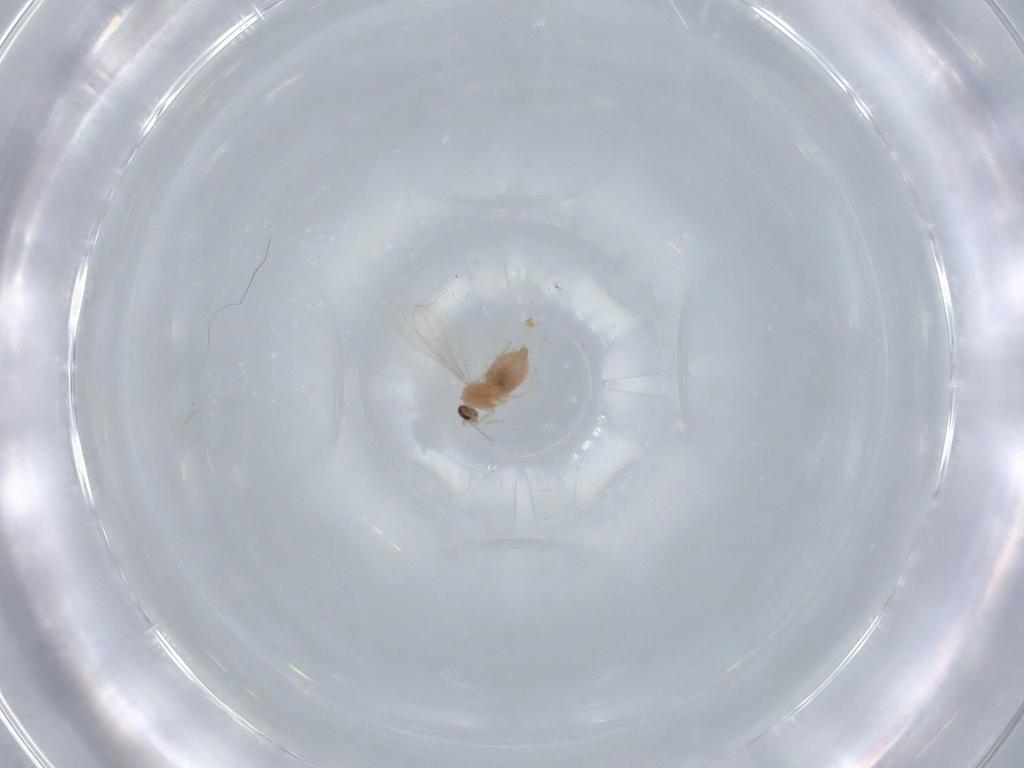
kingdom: Animalia
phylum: Arthropoda
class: Insecta
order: Diptera
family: Cecidomyiidae
